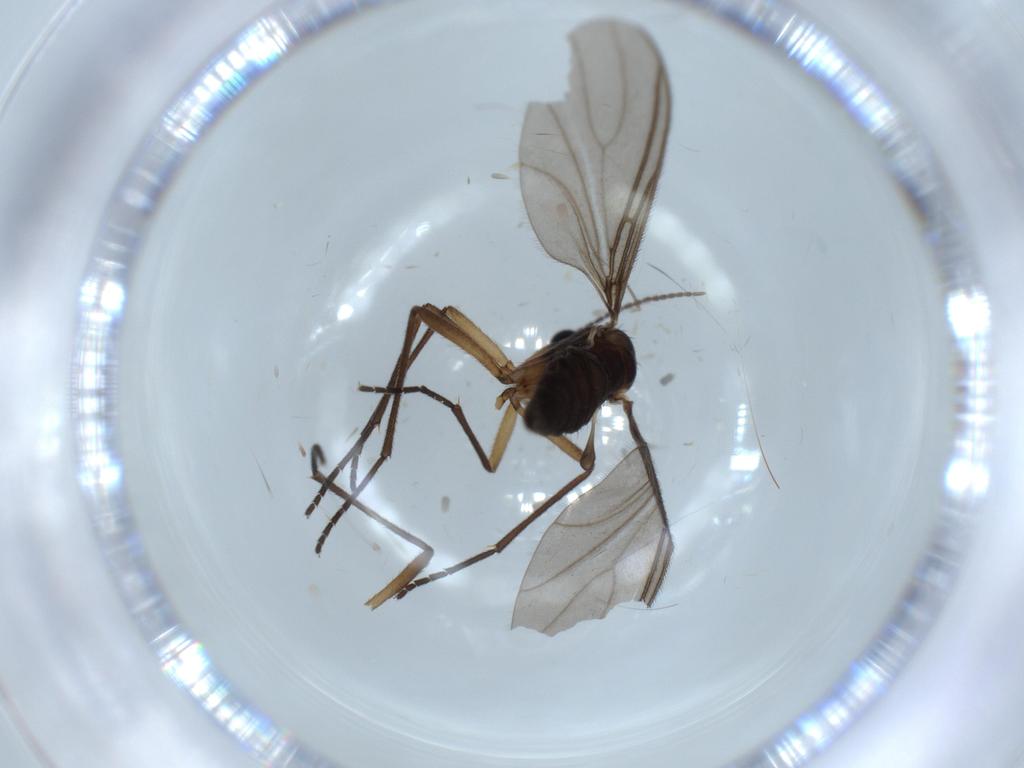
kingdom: Animalia
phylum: Arthropoda
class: Insecta
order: Diptera
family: Sciaridae
